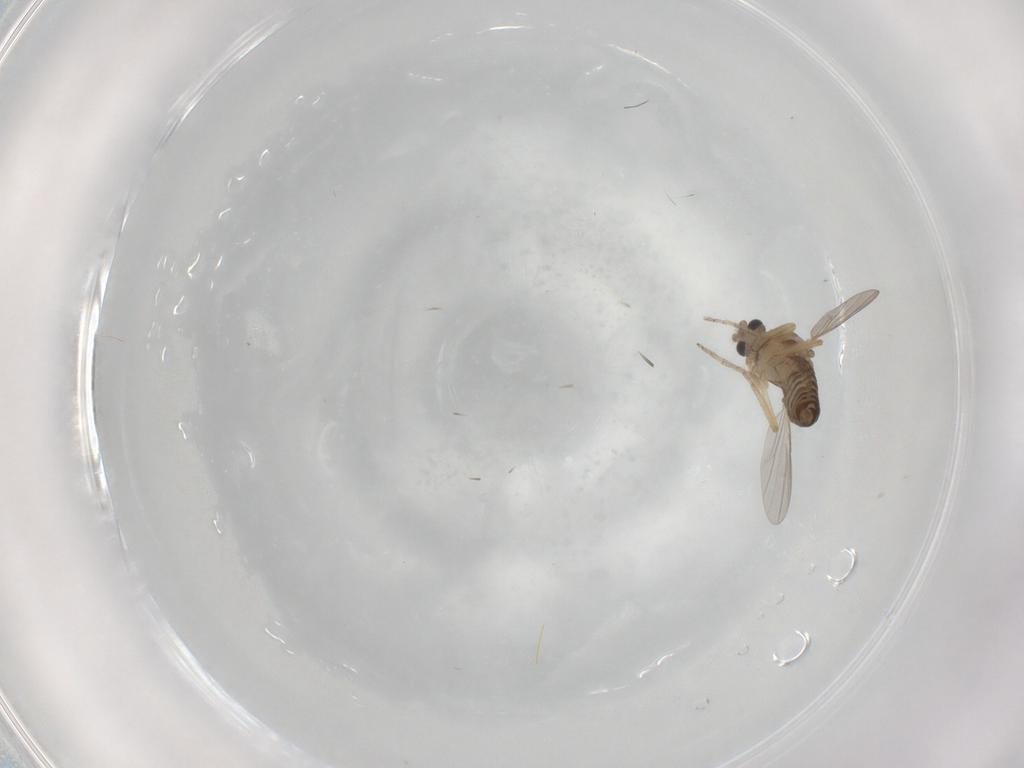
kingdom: Animalia
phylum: Arthropoda
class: Insecta
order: Diptera
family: Ceratopogonidae
